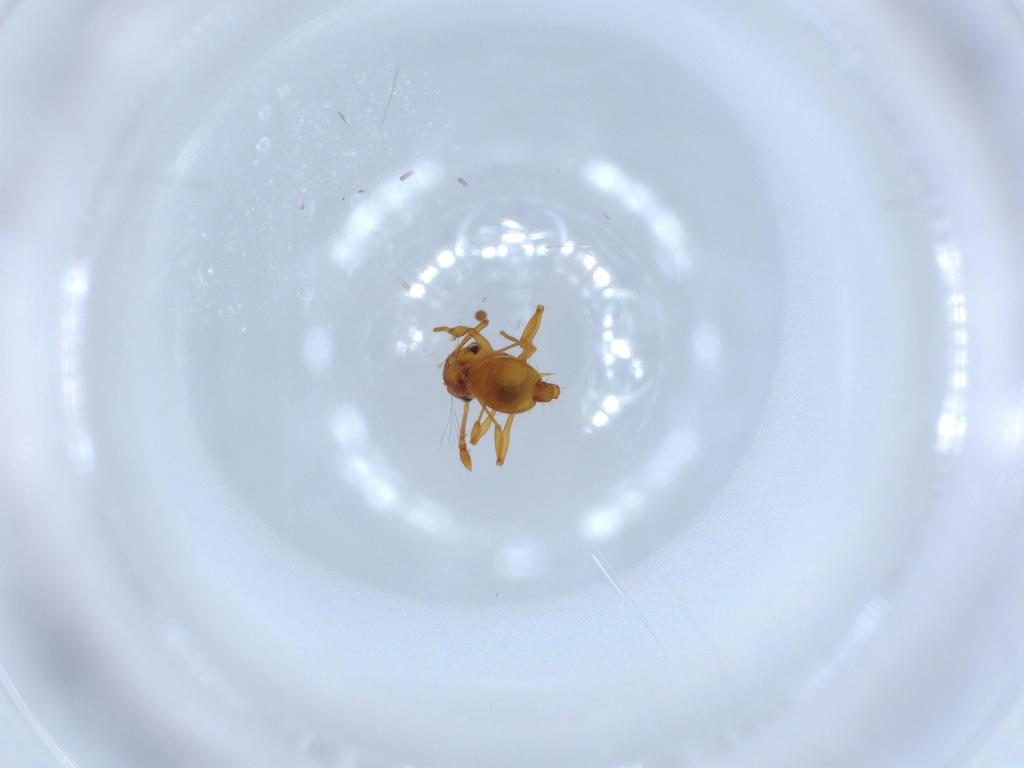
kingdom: Animalia
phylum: Arthropoda
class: Insecta
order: Hymenoptera
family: Formicidae
